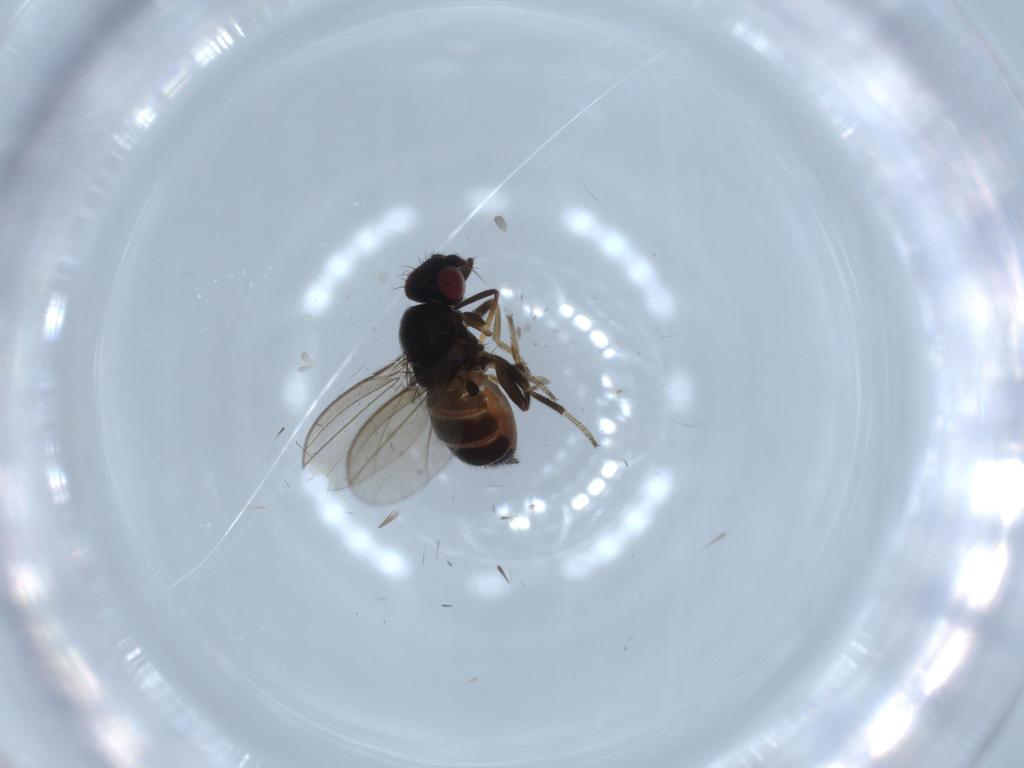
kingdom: Animalia
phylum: Arthropoda
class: Insecta
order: Diptera
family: Milichiidae
